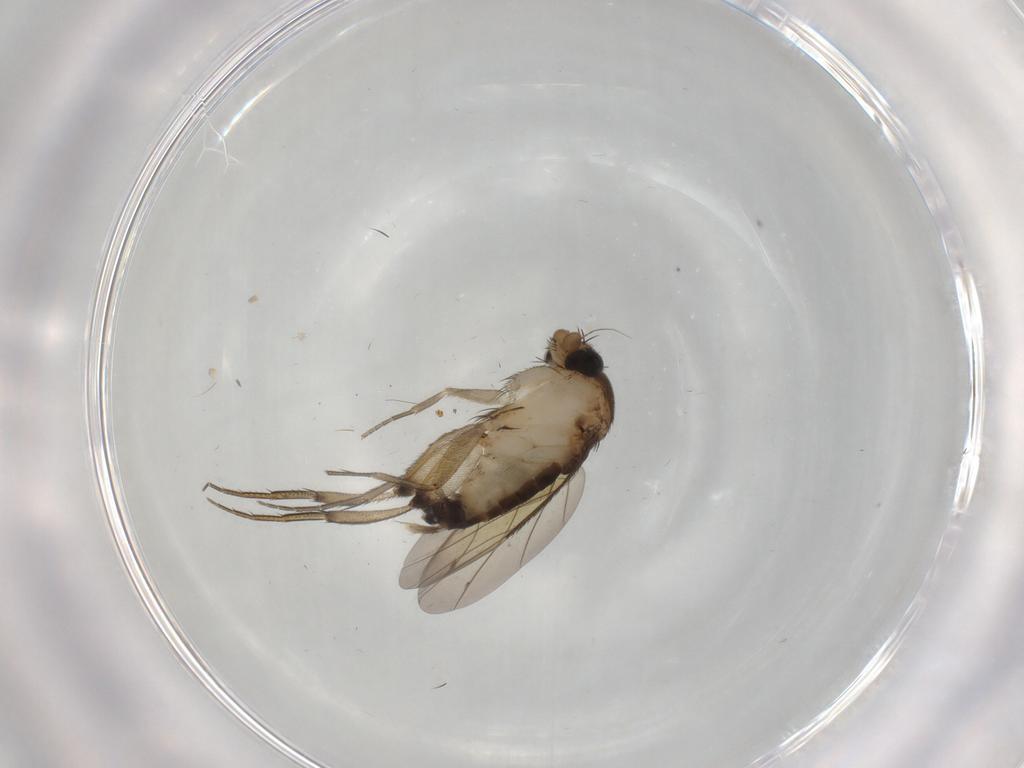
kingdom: Animalia
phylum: Arthropoda
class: Insecta
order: Diptera
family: Phoridae
